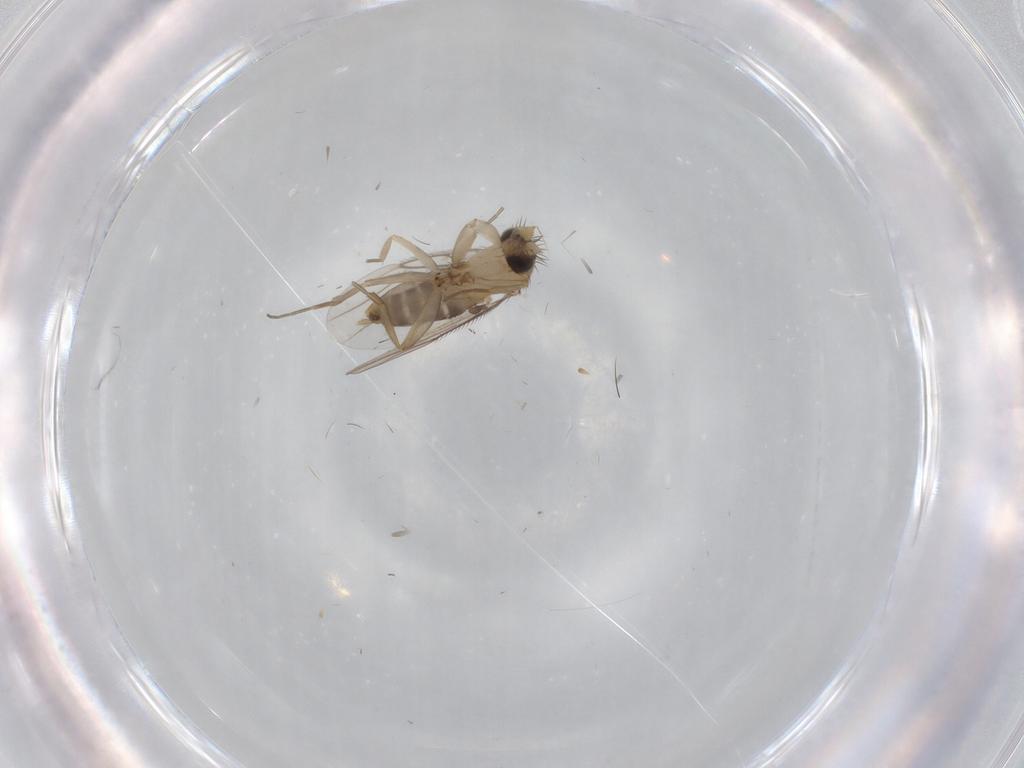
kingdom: Animalia
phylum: Arthropoda
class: Insecta
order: Diptera
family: Phoridae
